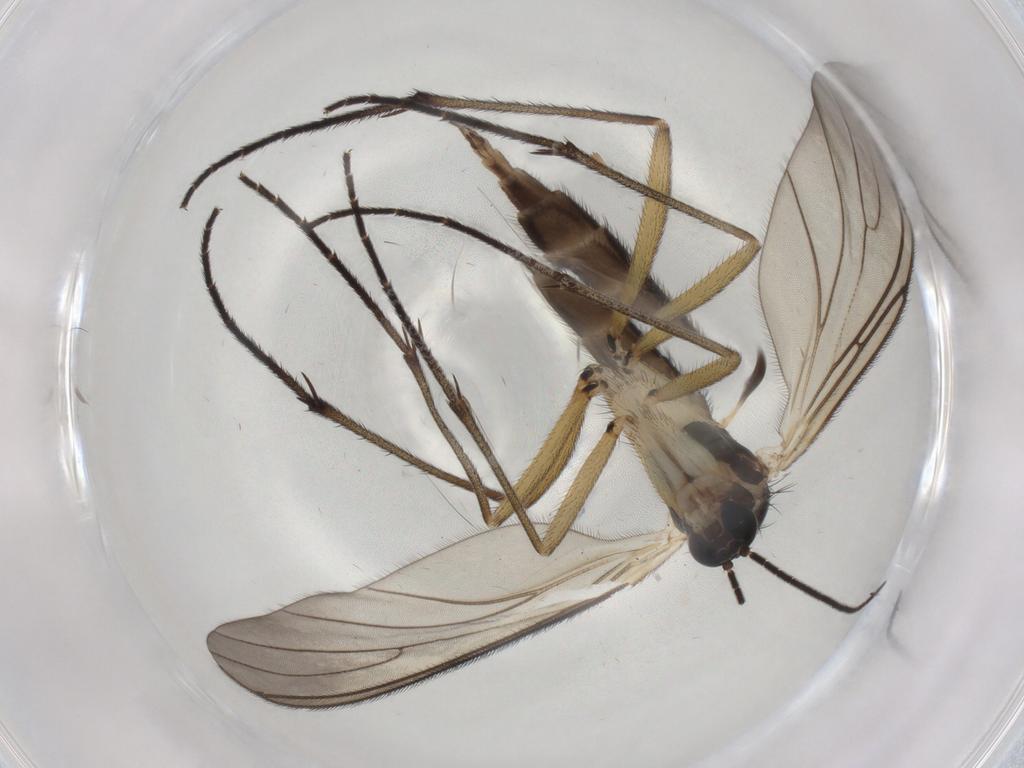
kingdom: Animalia
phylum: Arthropoda
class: Insecta
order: Diptera
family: Sciaridae
